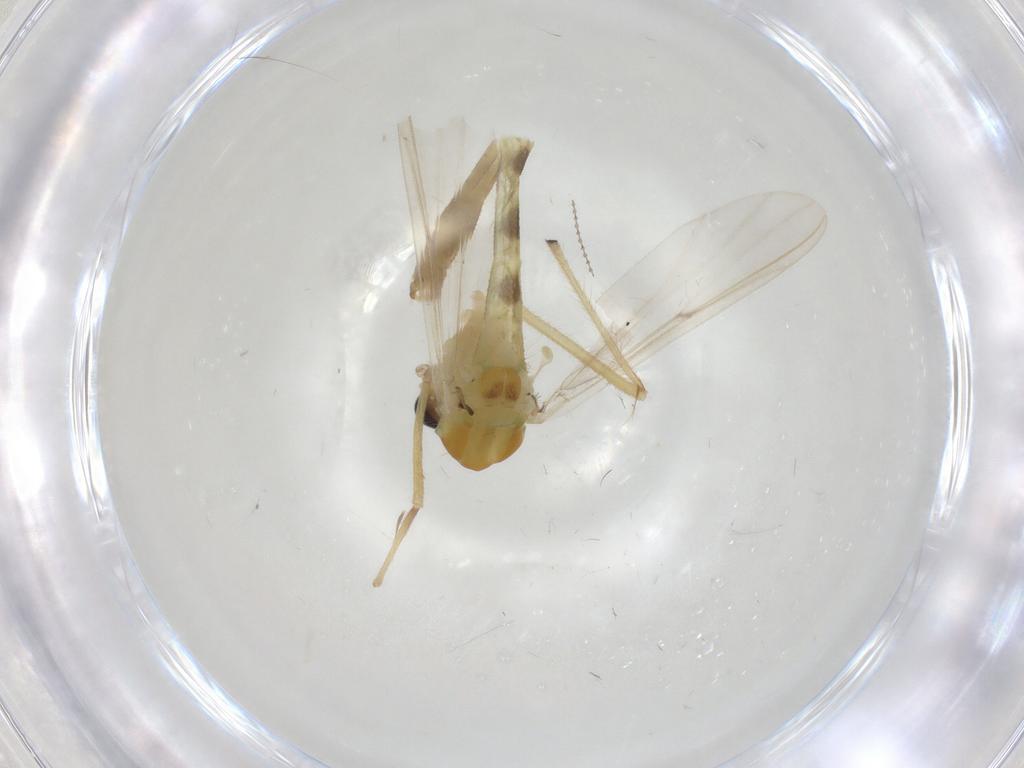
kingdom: Animalia
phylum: Arthropoda
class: Insecta
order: Diptera
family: Chironomidae
